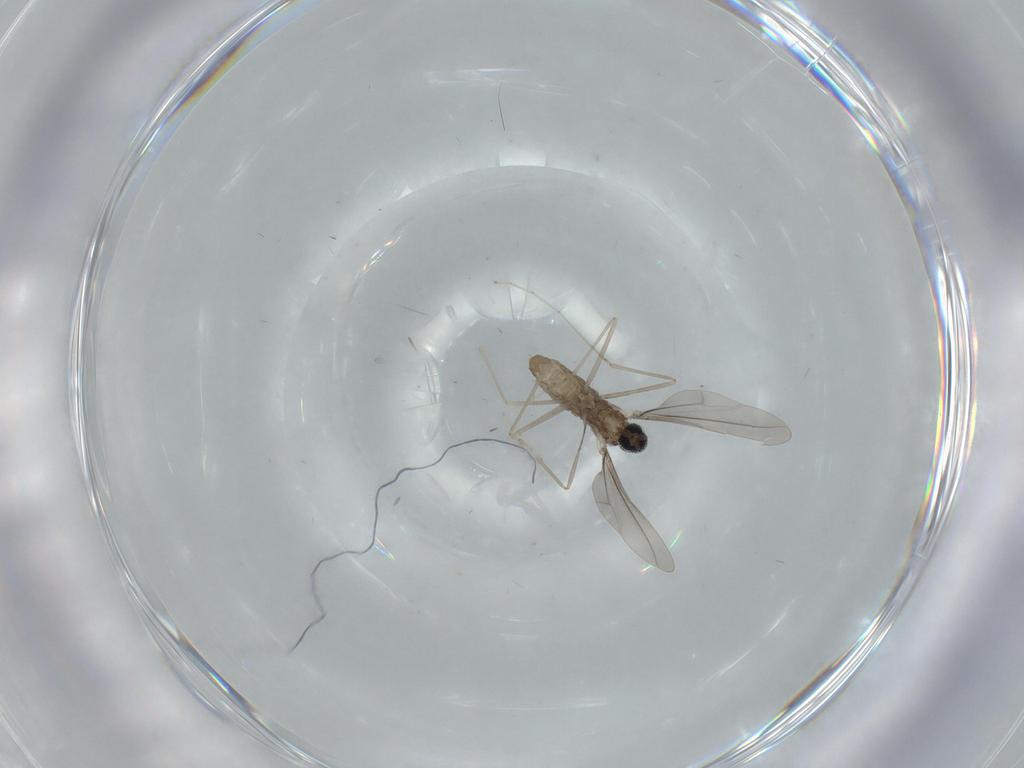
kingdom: Animalia
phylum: Arthropoda
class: Insecta
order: Diptera
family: Cecidomyiidae
